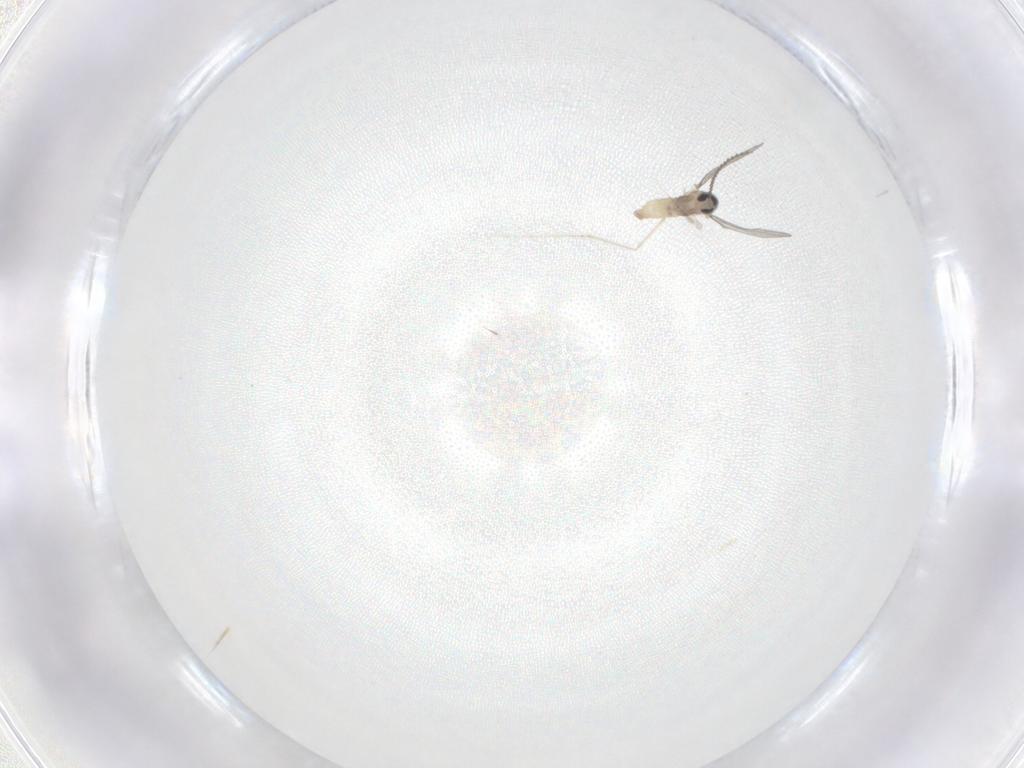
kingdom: Animalia
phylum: Arthropoda
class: Insecta
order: Diptera
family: Cecidomyiidae
